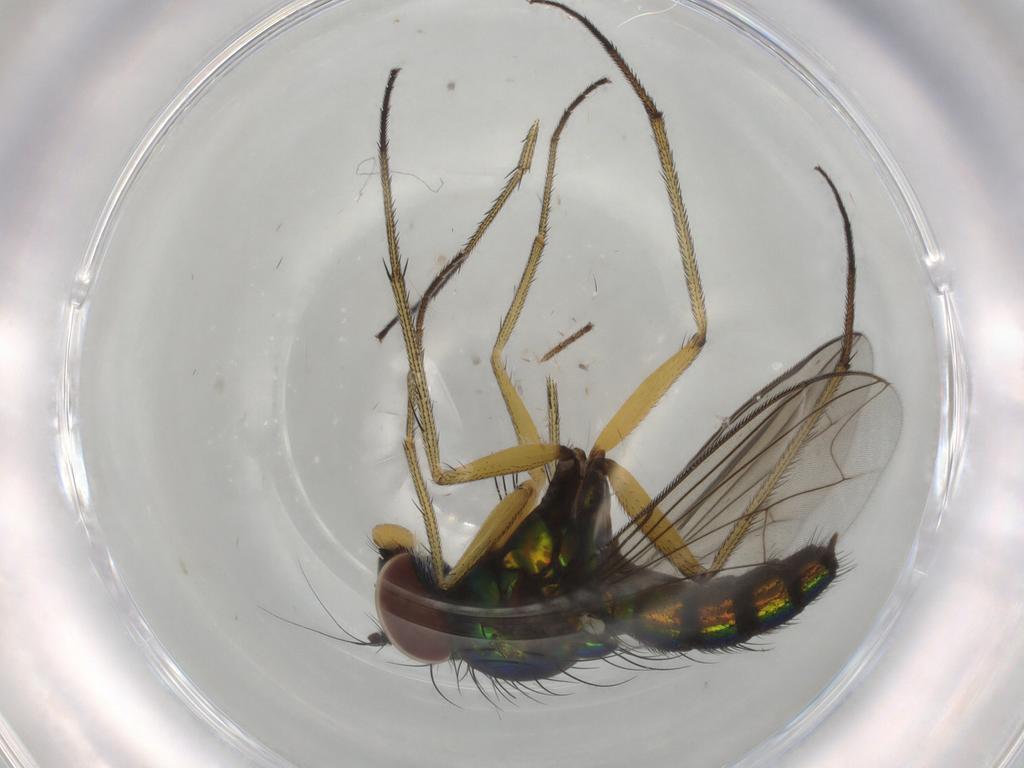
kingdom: Animalia
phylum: Arthropoda
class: Insecta
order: Diptera
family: Dolichopodidae
